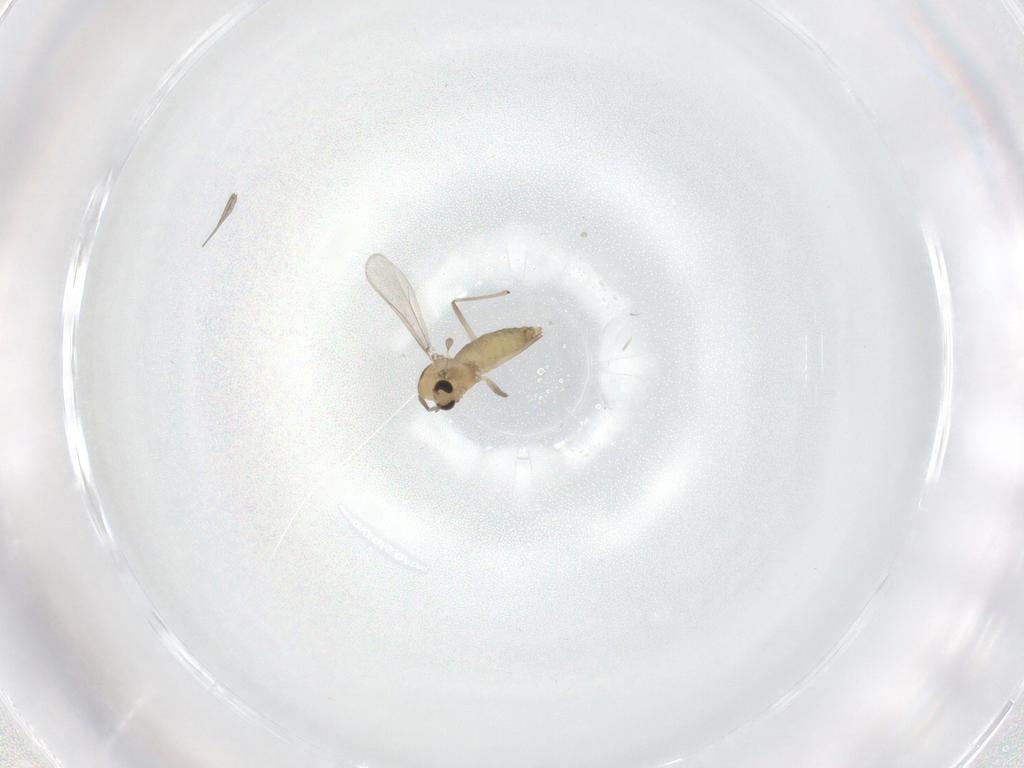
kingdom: Animalia
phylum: Arthropoda
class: Insecta
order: Diptera
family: Chironomidae
